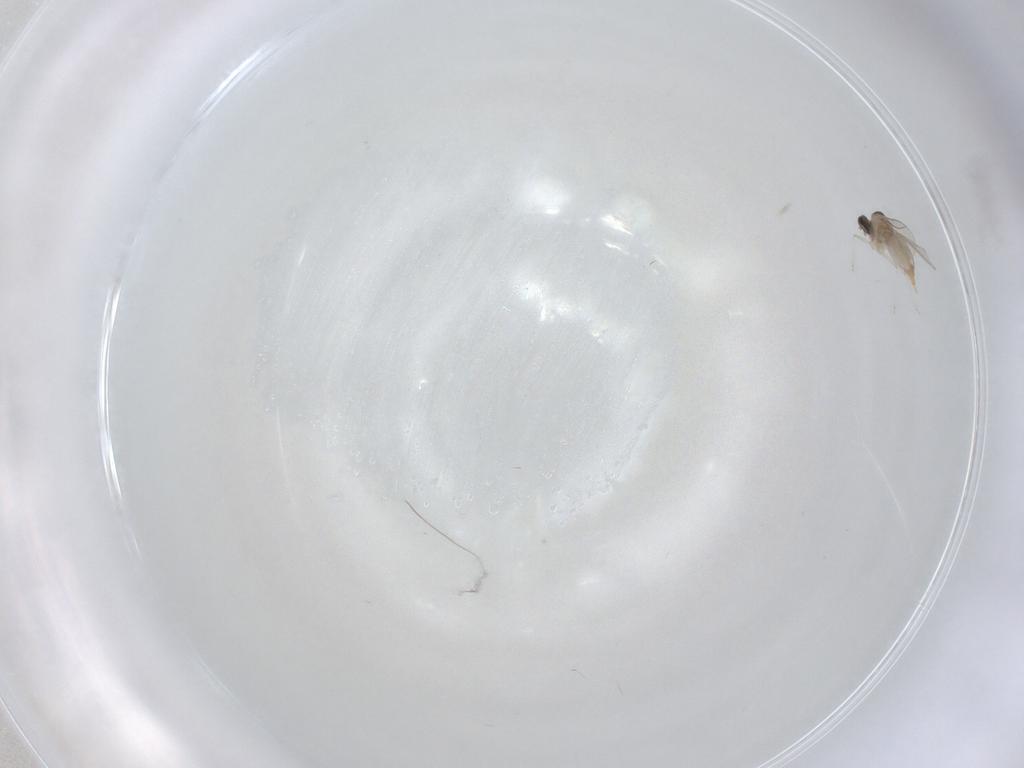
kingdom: Animalia
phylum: Arthropoda
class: Insecta
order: Diptera
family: Cecidomyiidae
